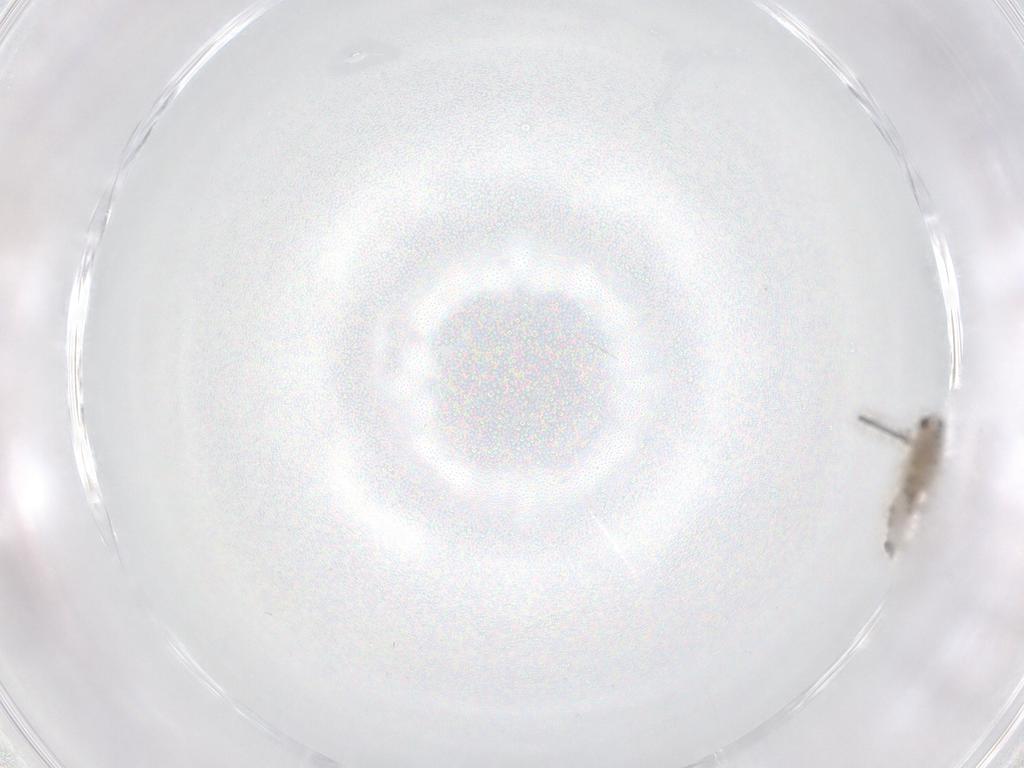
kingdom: Animalia
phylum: Arthropoda
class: Insecta
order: Diptera
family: Chironomidae
